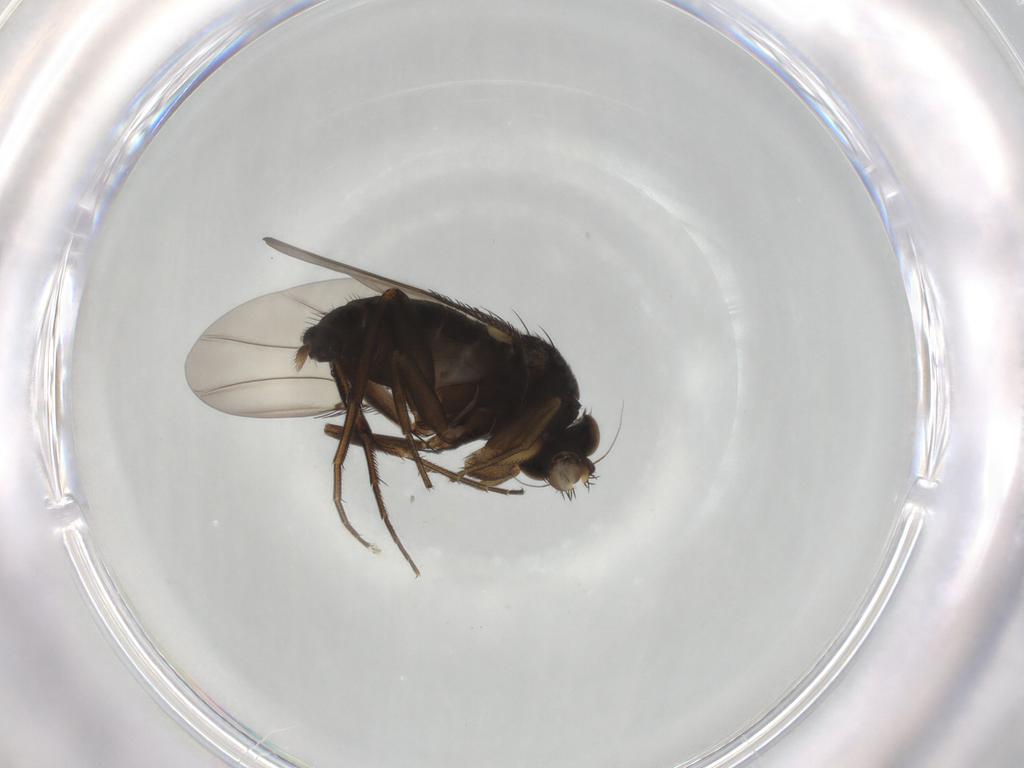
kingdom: Animalia
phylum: Arthropoda
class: Insecta
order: Diptera
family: Phoridae
